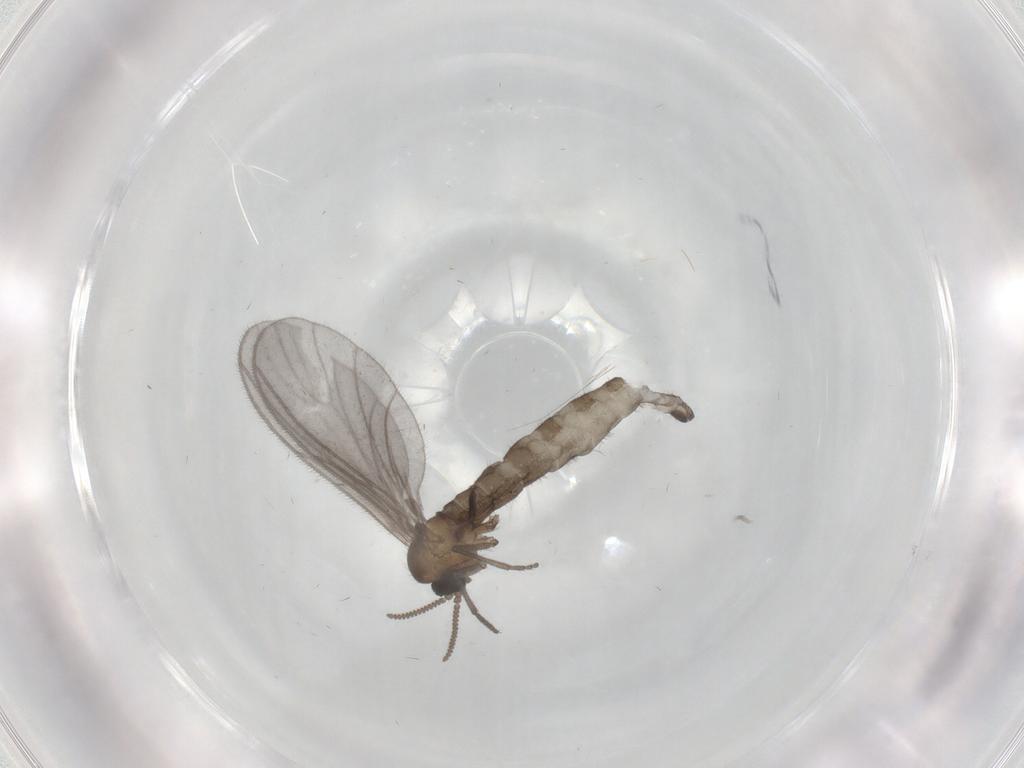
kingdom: Animalia
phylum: Arthropoda
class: Insecta
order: Diptera
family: Sciaridae
